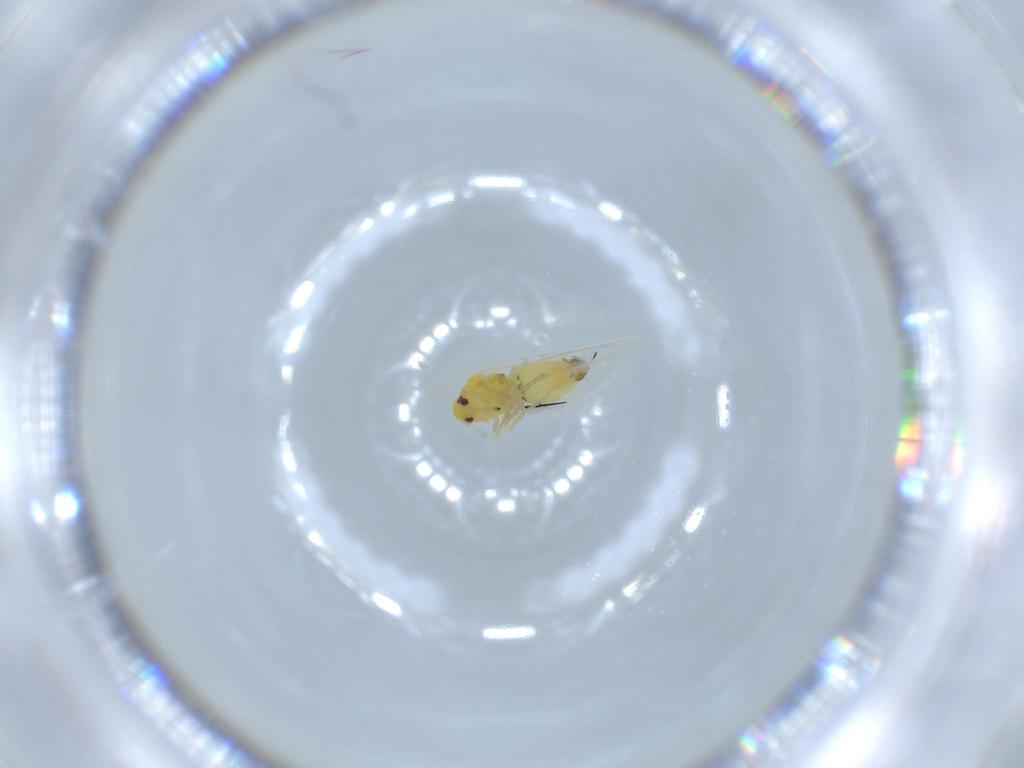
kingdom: Animalia
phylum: Arthropoda
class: Insecta
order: Hemiptera
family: Aleyrodidae
